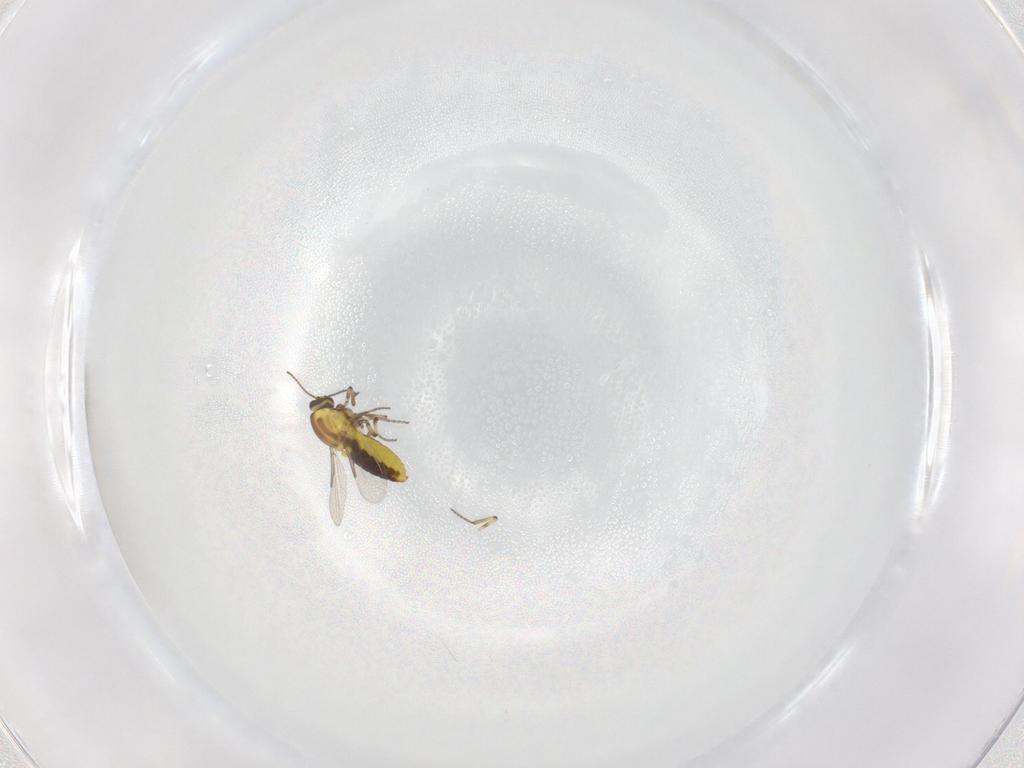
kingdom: Animalia
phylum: Arthropoda
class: Insecta
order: Diptera
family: Ceratopogonidae
